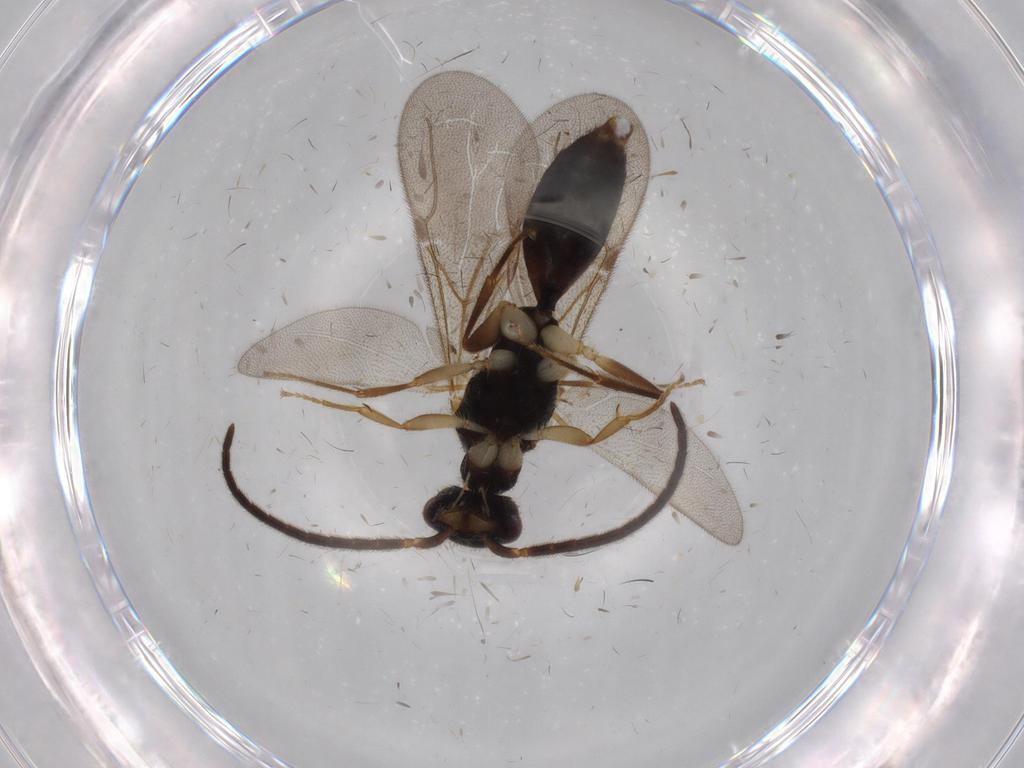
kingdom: Animalia
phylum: Arthropoda
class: Insecta
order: Hymenoptera
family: Bethylidae
